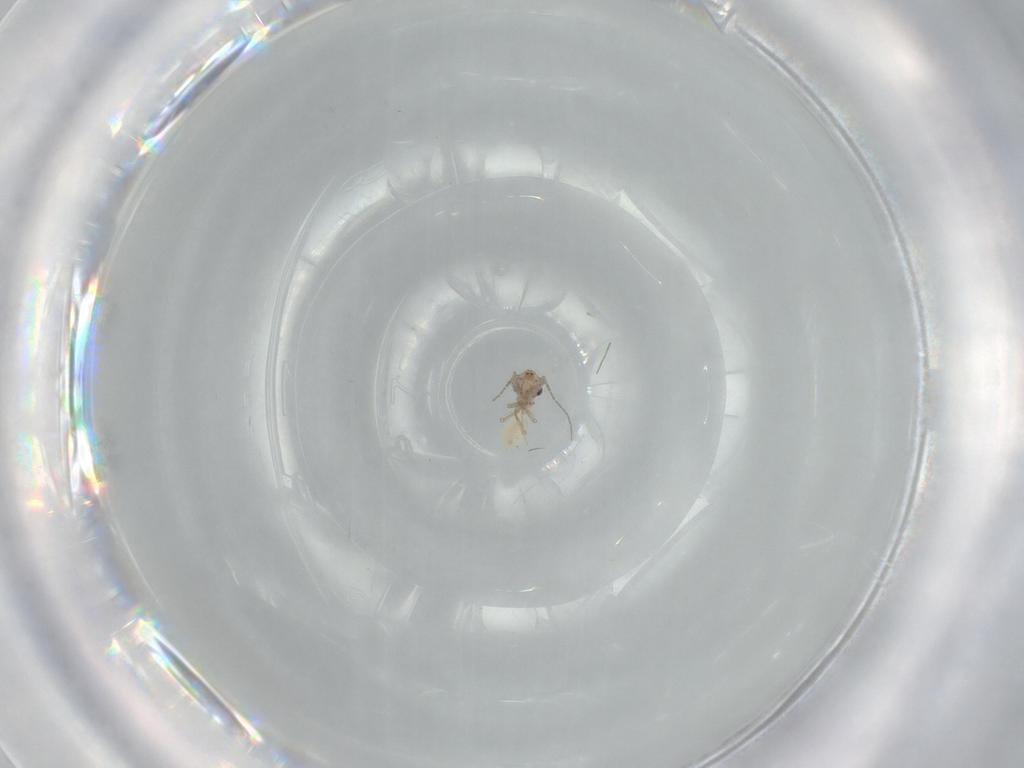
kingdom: Animalia
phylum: Arthropoda
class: Insecta
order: Psocodea
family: Lepidopsocidae
